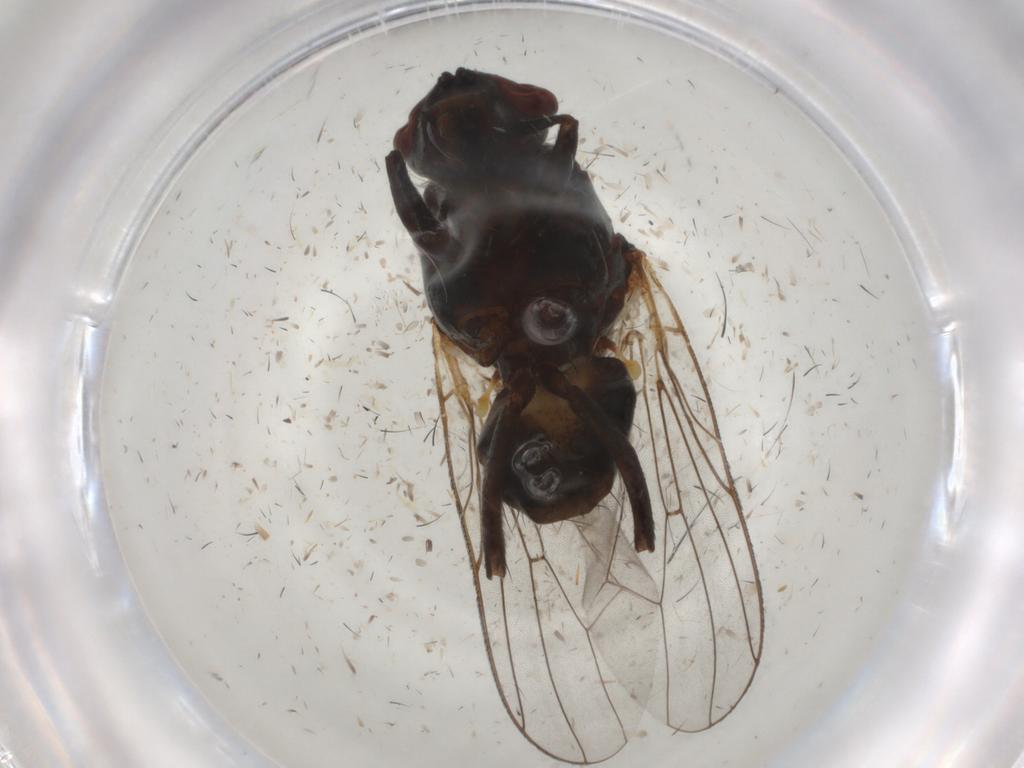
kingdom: Animalia
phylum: Arthropoda
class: Insecta
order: Diptera
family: Anthomyiidae
